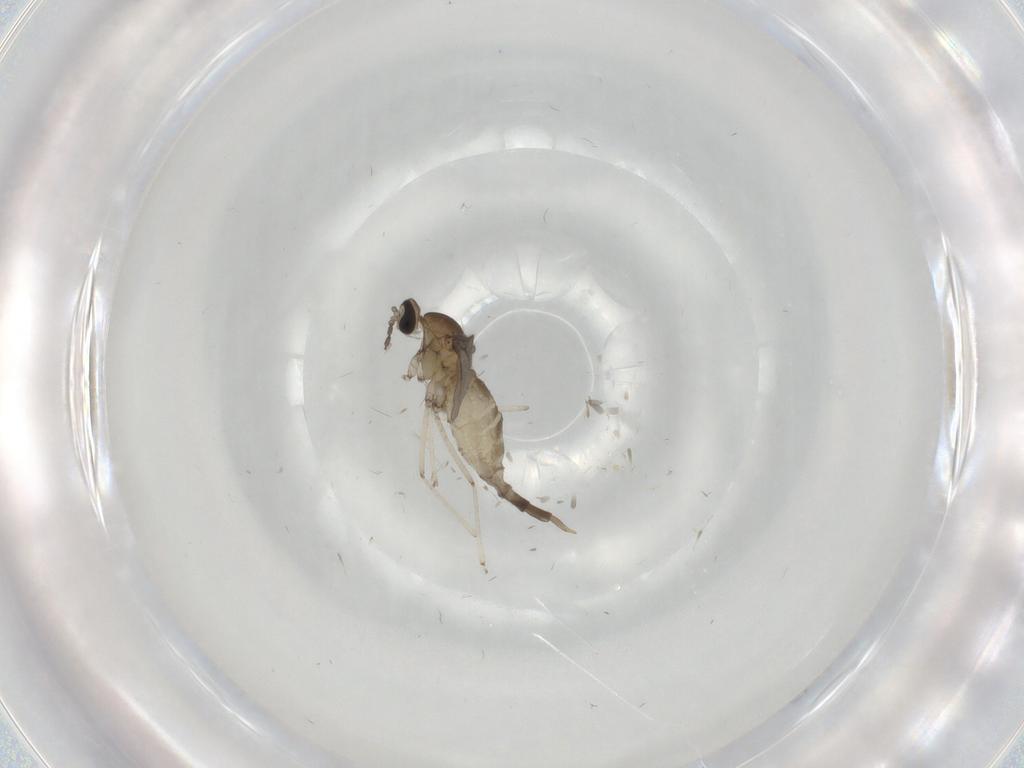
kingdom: Animalia
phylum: Arthropoda
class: Insecta
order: Diptera
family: Cecidomyiidae
